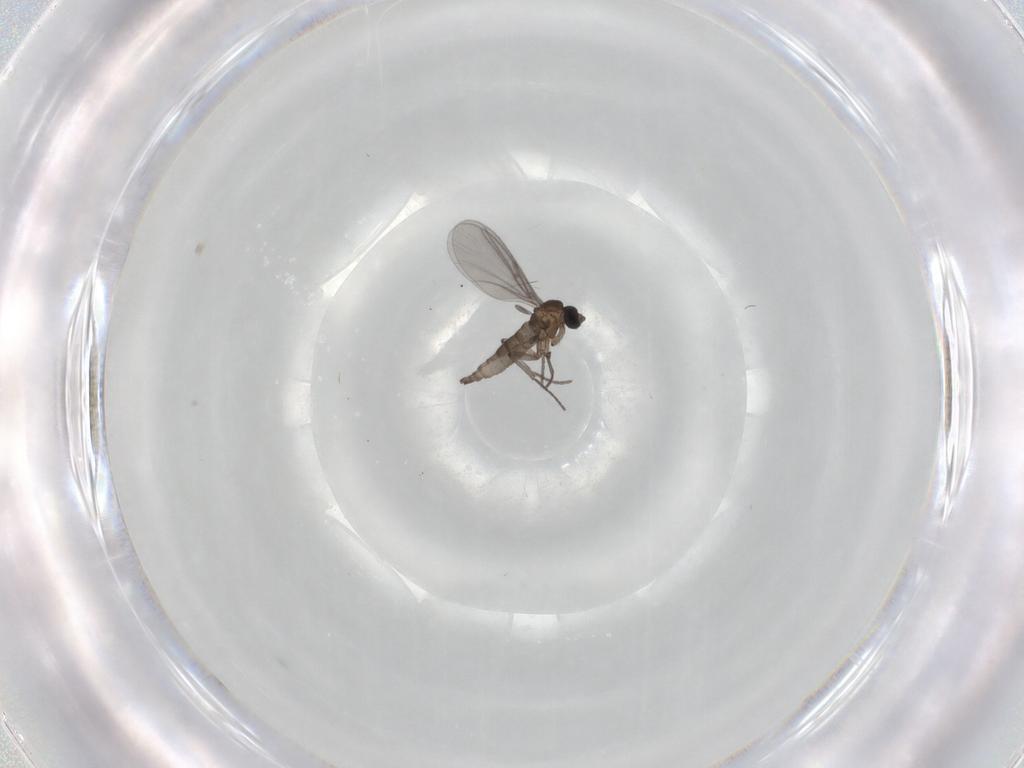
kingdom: Animalia
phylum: Arthropoda
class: Insecta
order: Diptera
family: Sciaridae
